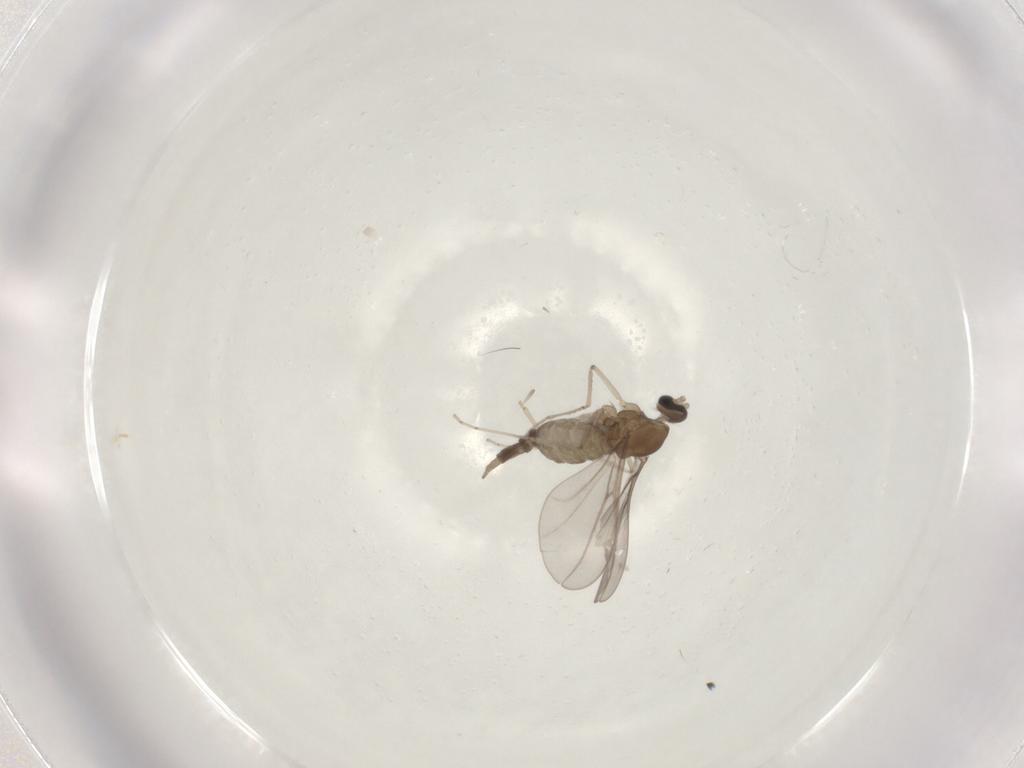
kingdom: Animalia
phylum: Arthropoda
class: Insecta
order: Diptera
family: Cecidomyiidae
